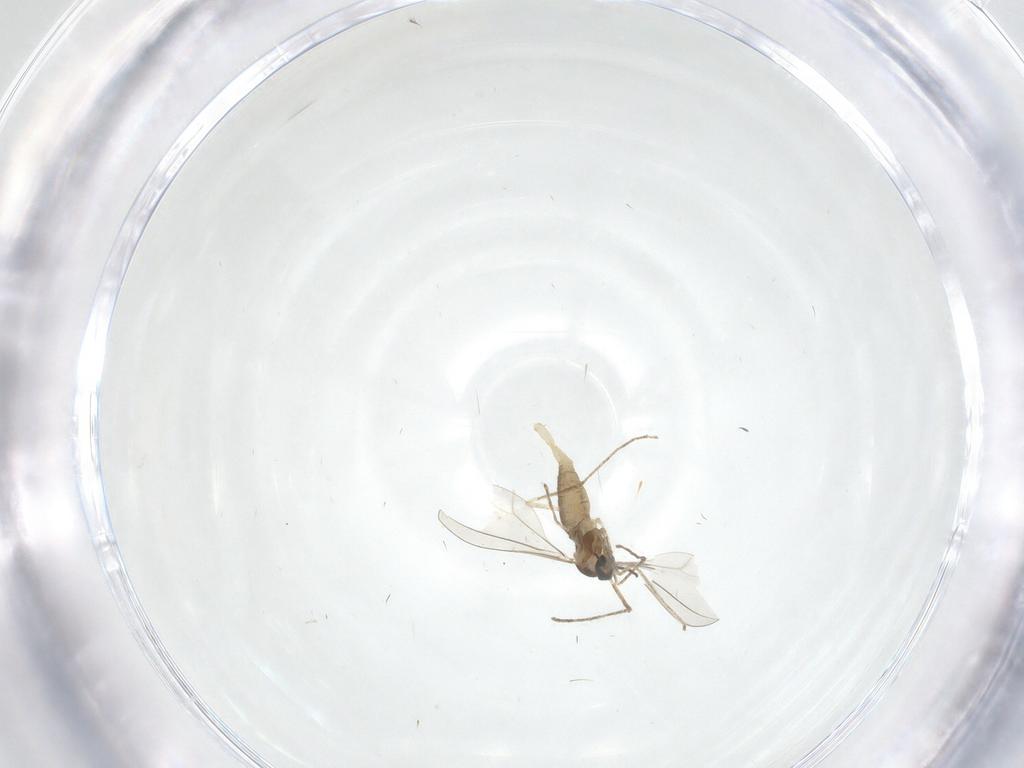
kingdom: Animalia
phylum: Arthropoda
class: Insecta
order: Diptera
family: Cecidomyiidae
